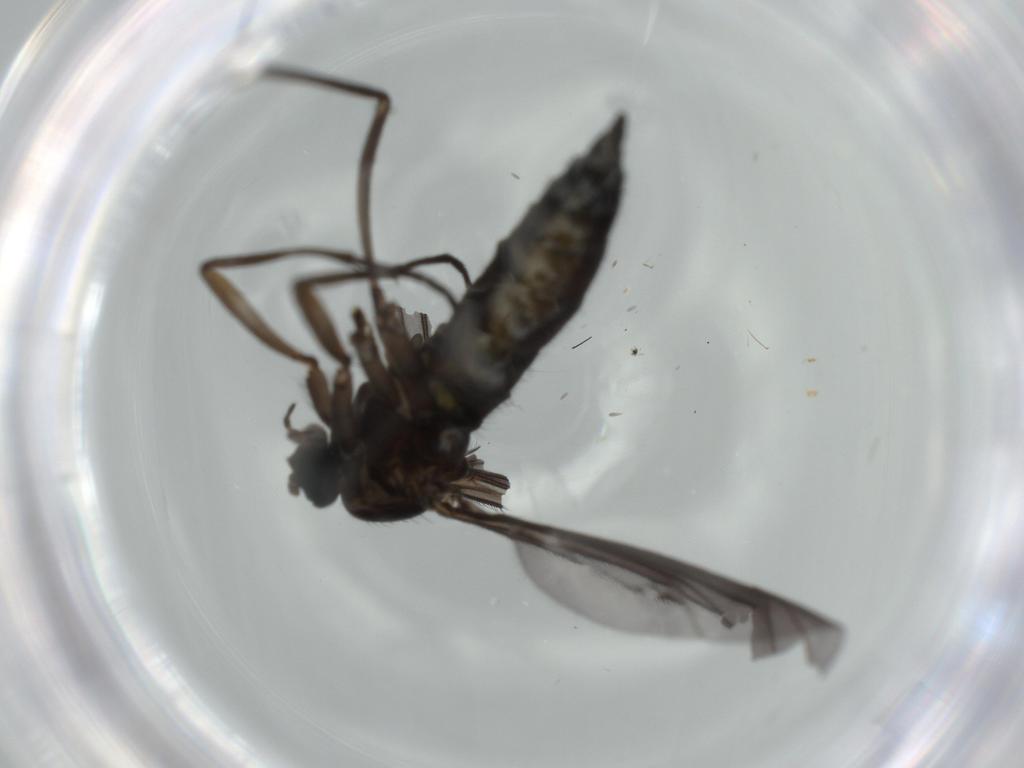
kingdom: Animalia
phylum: Arthropoda
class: Insecta
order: Diptera
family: Sciaridae
